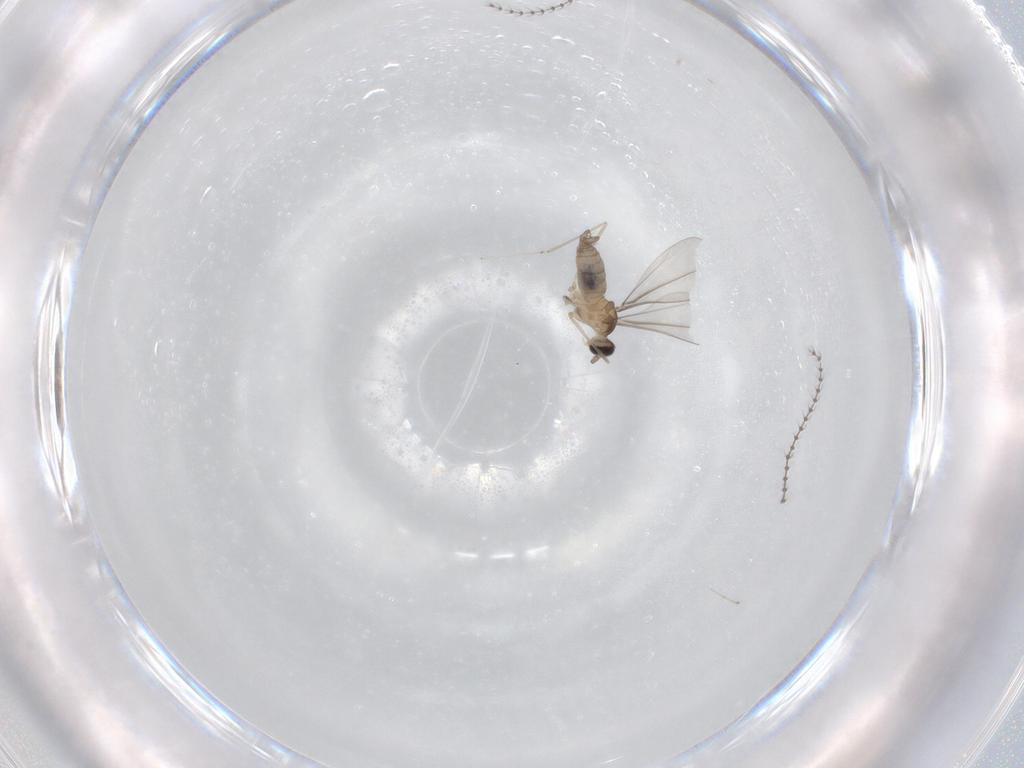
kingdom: Animalia
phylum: Arthropoda
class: Insecta
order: Diptera
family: Cecidomyiidae
